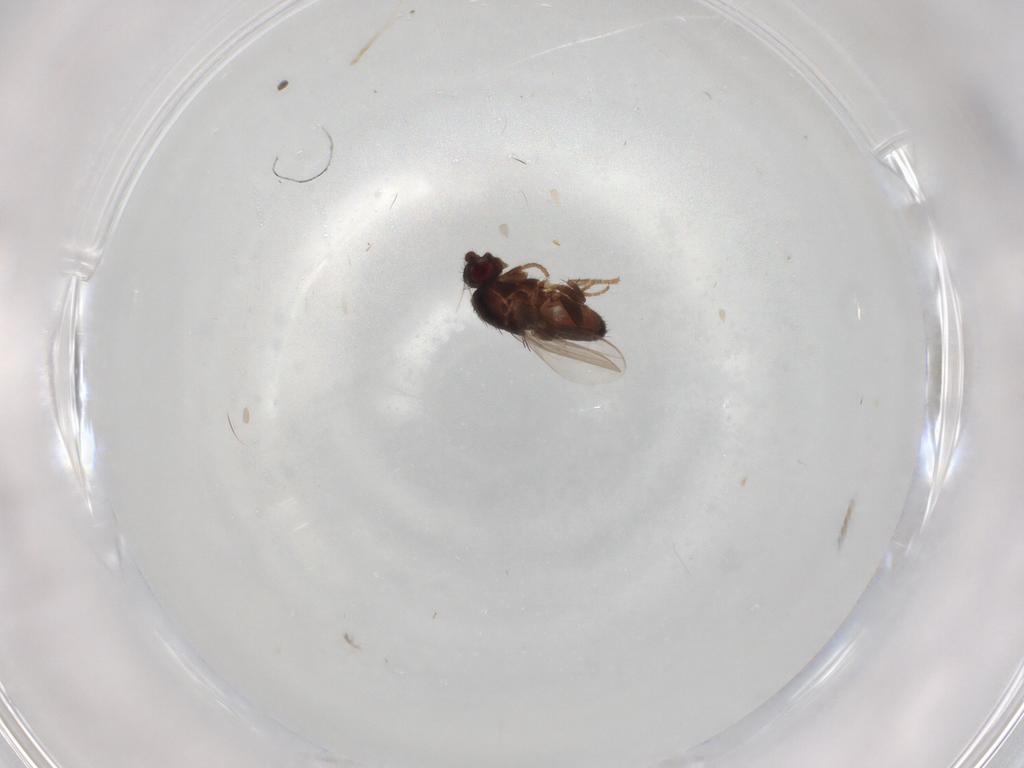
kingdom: Animalia
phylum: Arthropoda
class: Insecta
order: Diptera
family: Sphaeroceridae
